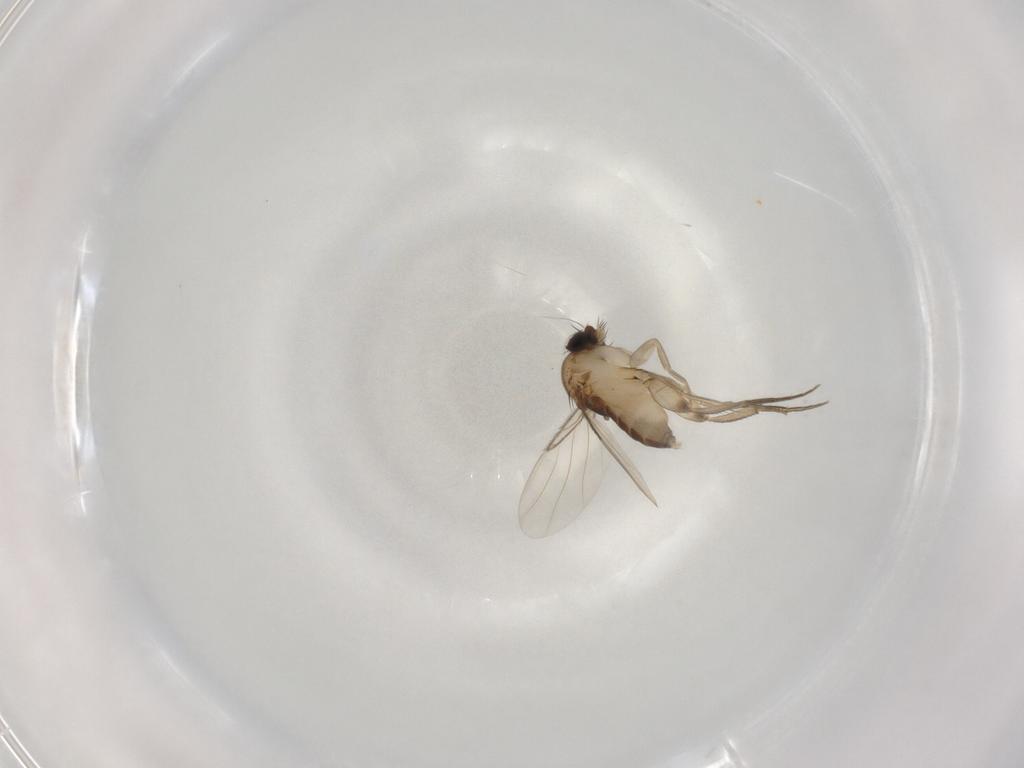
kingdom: Animalia
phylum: Arthropoda
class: Insecta
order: Diptera
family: Phoridae
